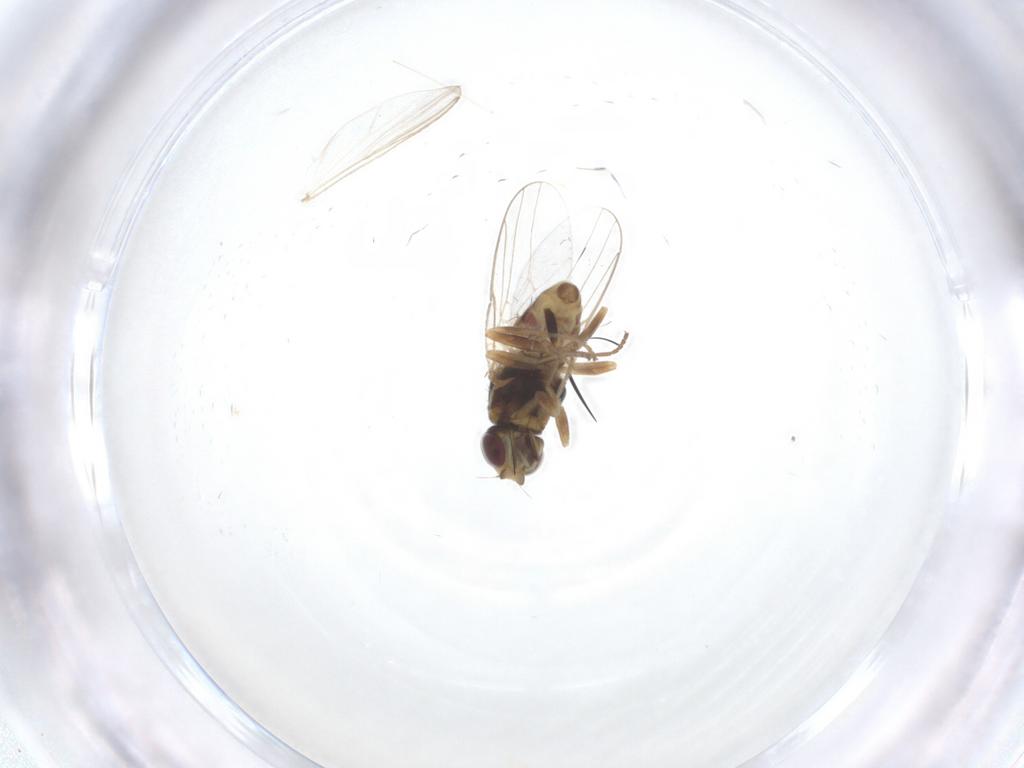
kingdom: Animalia
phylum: Arthropoda
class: Insecta
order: Diptera
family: Chloropidae
